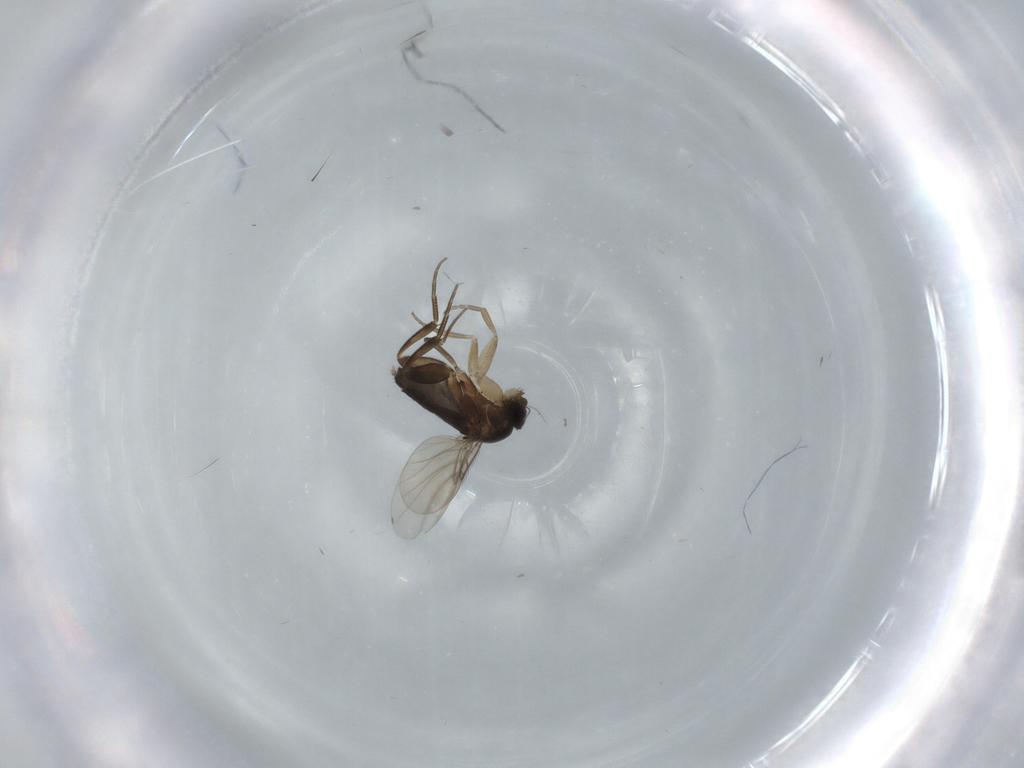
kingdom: Animalia
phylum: Arthropoda
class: Insecta
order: Diptera
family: Phoridae
